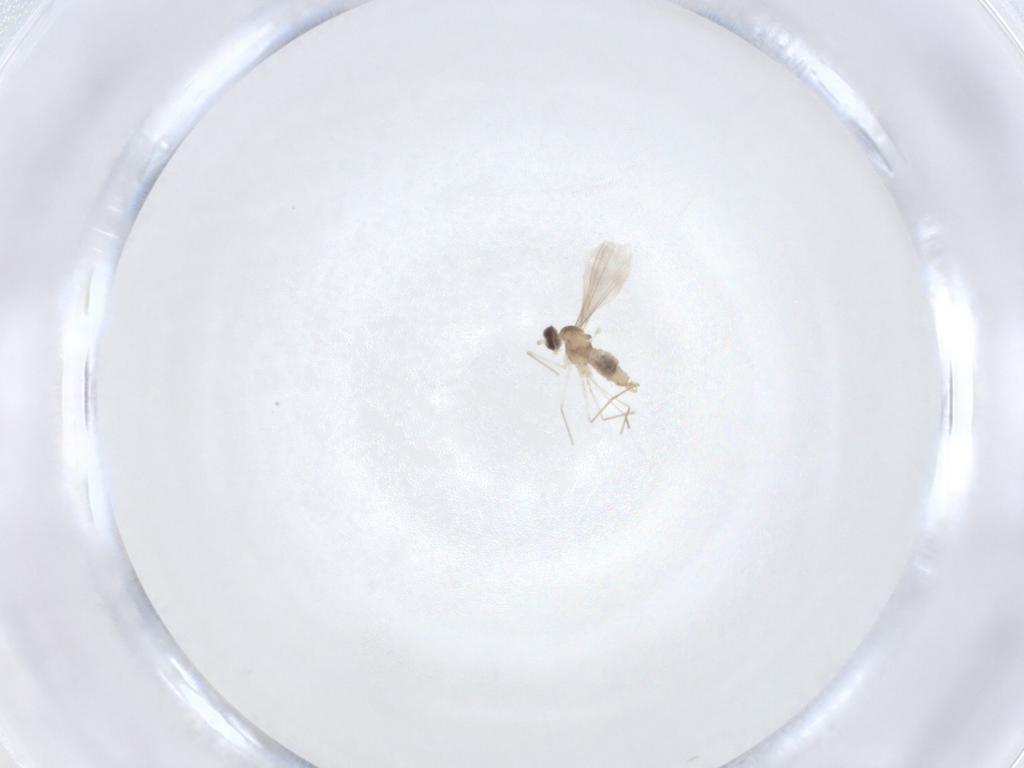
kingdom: Animalia
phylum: Arthropoda
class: Insecta
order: Diptera
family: Cecidomyiidae
